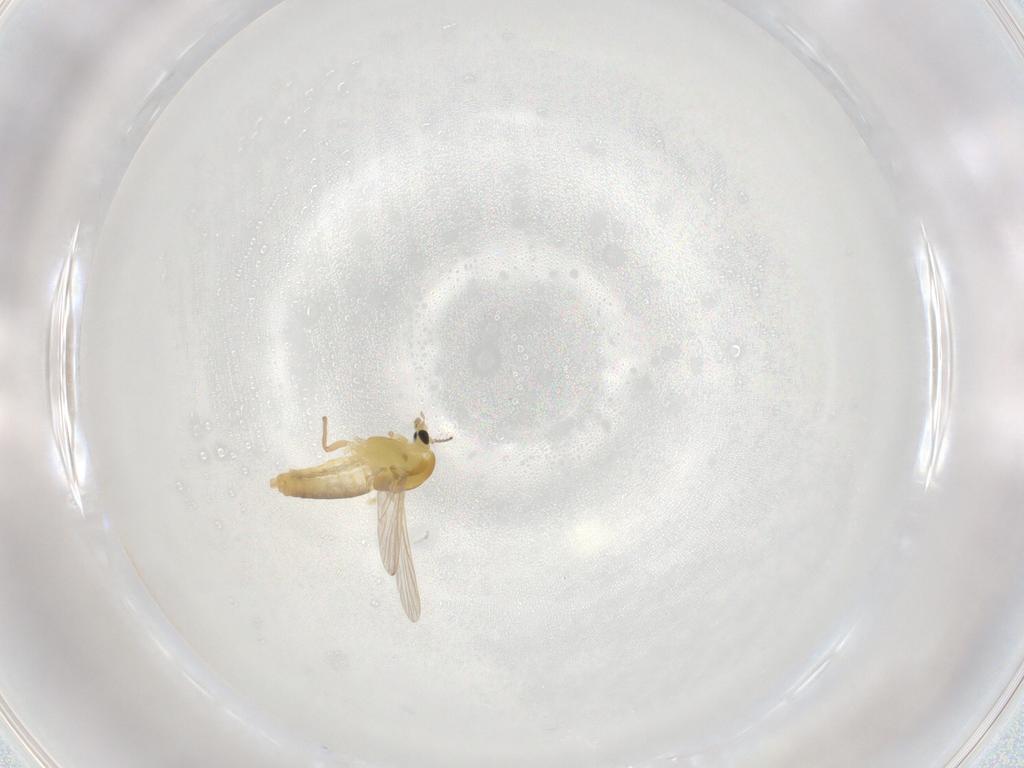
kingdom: Animalia
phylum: Arthropoda
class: Insecta
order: Diptera
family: Chironomidae
